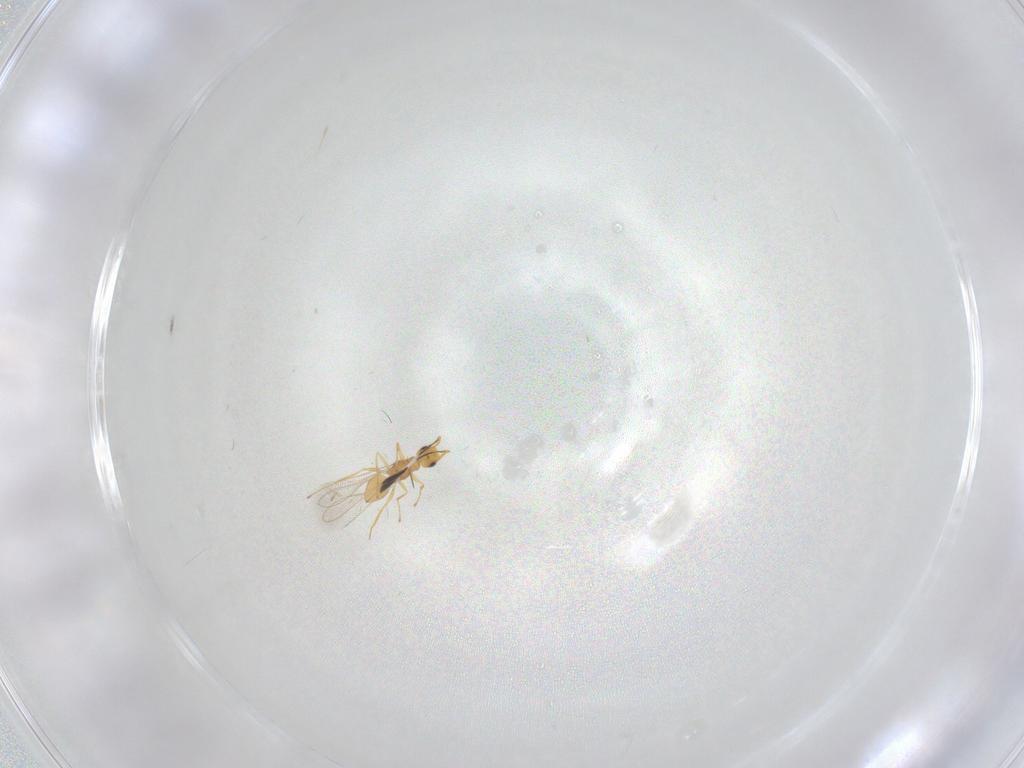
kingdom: Animalia
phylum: Arthropoda
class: Insecta
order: Hymenoptera
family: Mymaridae
